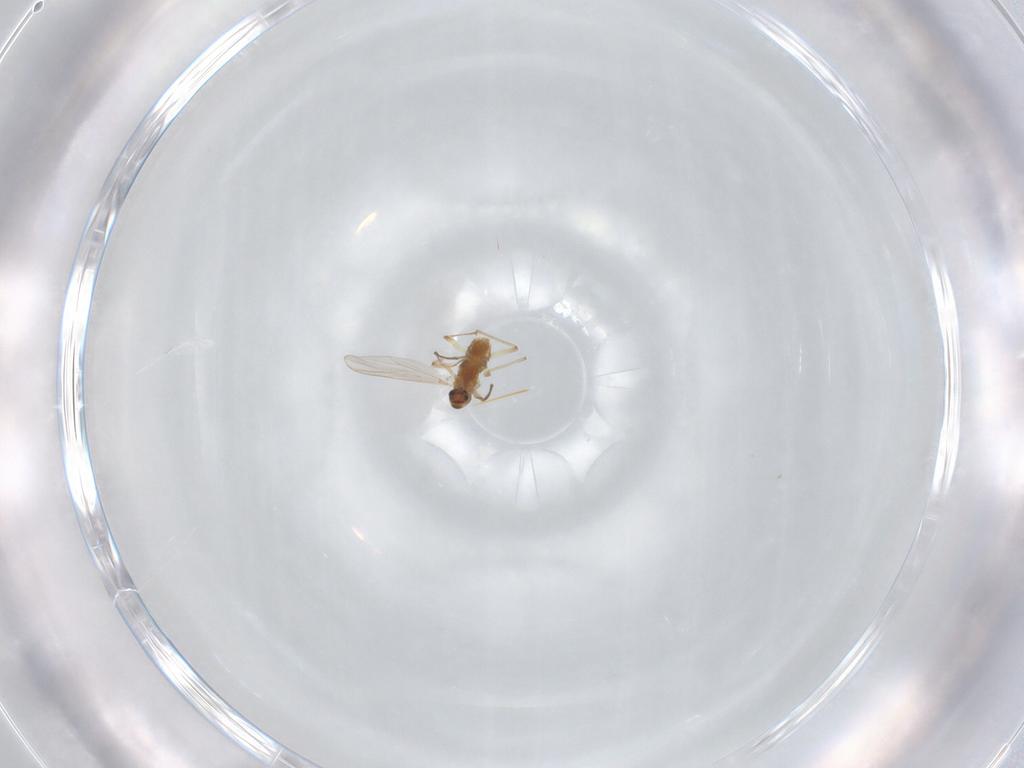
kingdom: Animalia
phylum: Arthropoda
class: Insecta
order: Diptera
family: Chironomidae
